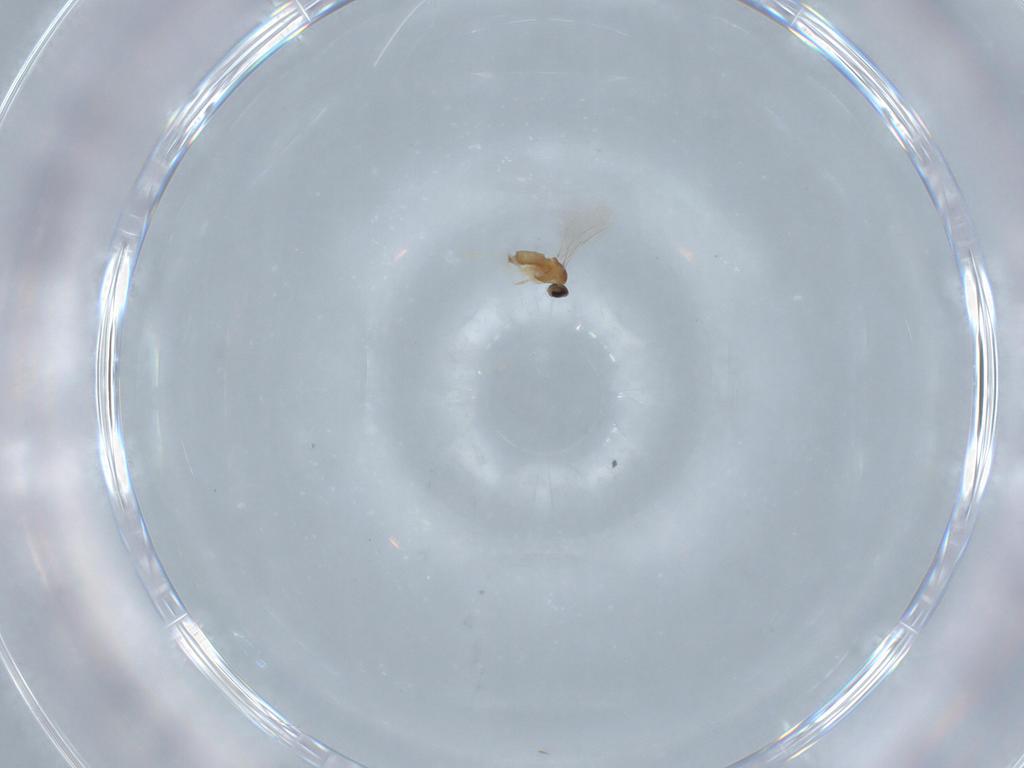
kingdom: Animalia
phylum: Arthropoda
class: Insecta
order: Diptera
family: Cecidomyiidae
